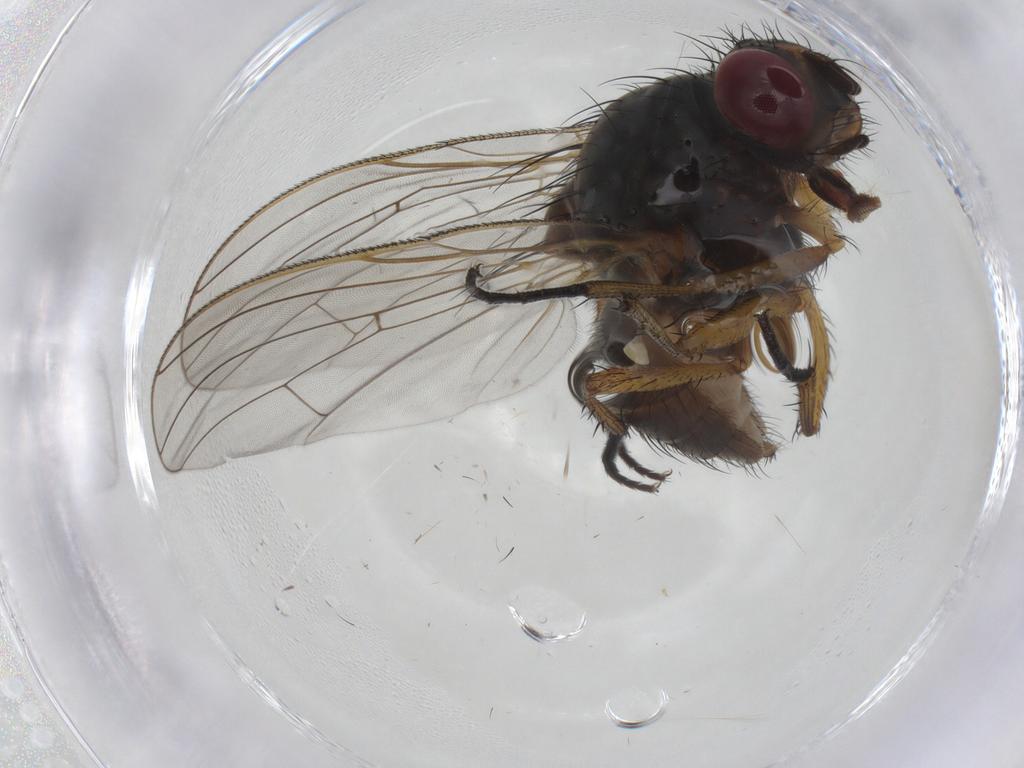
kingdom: Animalia
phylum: Arthropoda
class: Insecta
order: Diptera
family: Anthomyiidae
